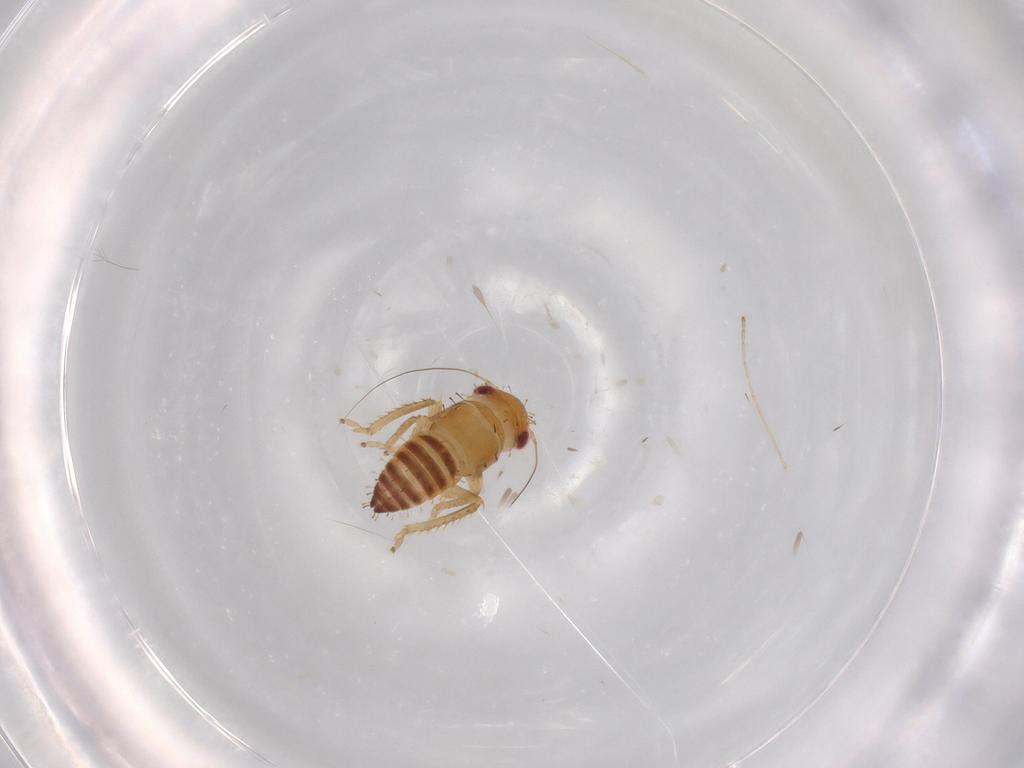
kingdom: Animalia
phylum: Arthropoda
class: Insecta
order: Hemiptera
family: Cicadellidae
